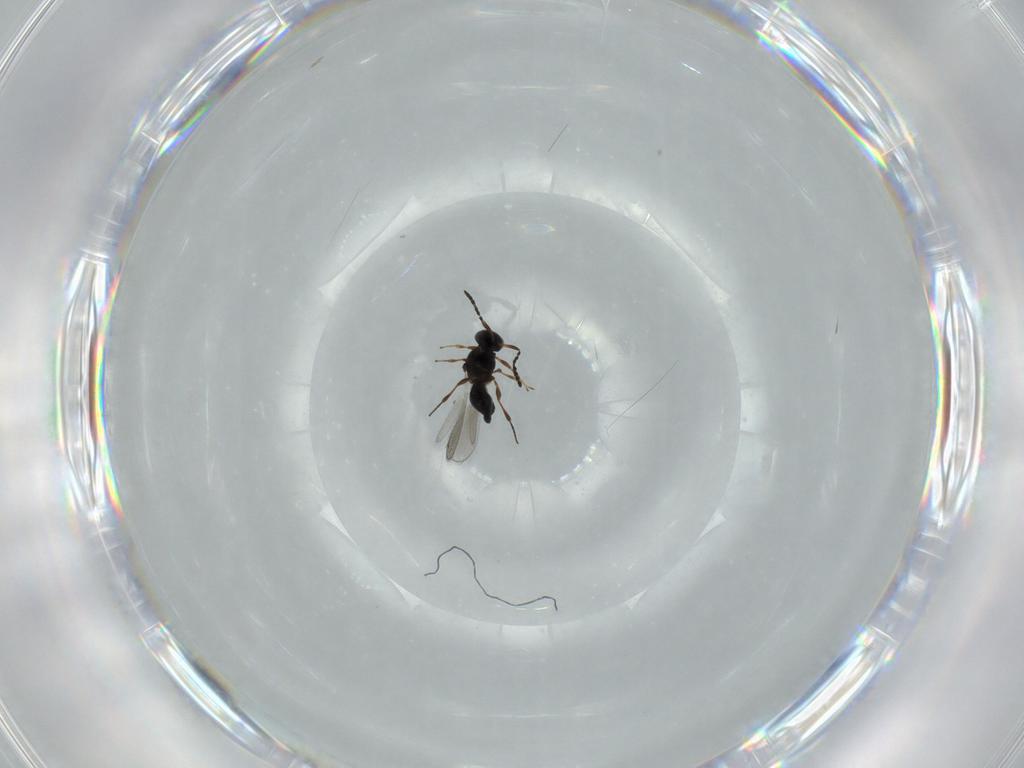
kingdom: Animalia
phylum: Arthropoda
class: Insecta
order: Hymenoptera
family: Platygastridae
